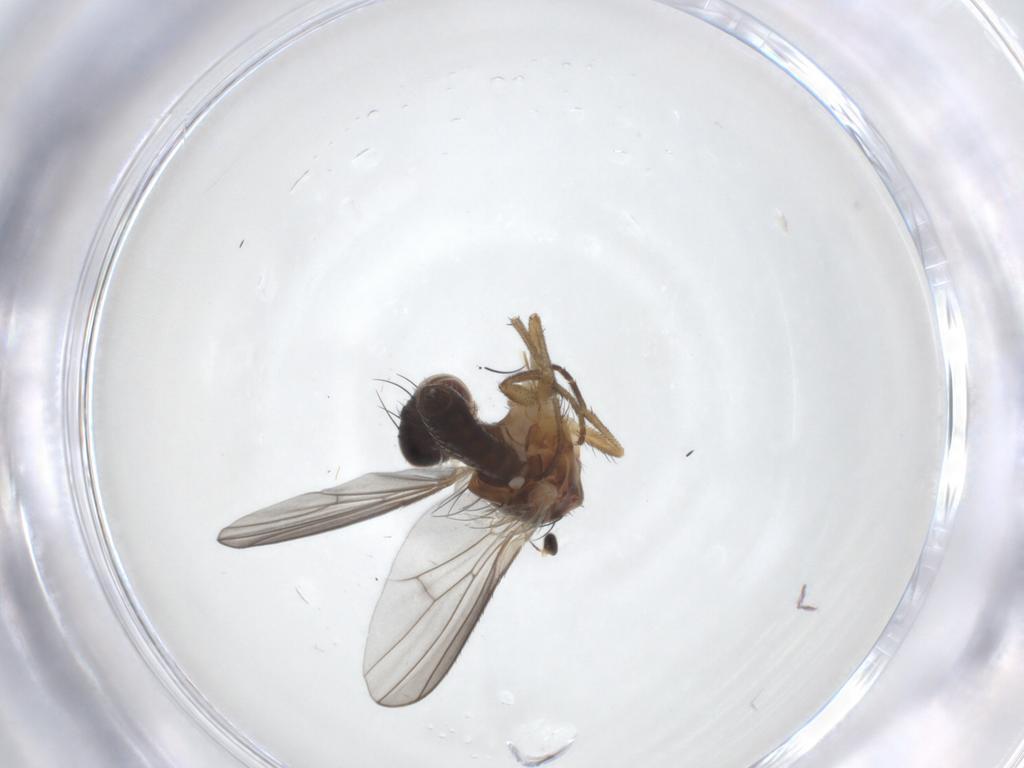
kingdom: Animalia
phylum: Arthropoda
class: Insecta
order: Diptera
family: Heleomyzidae
